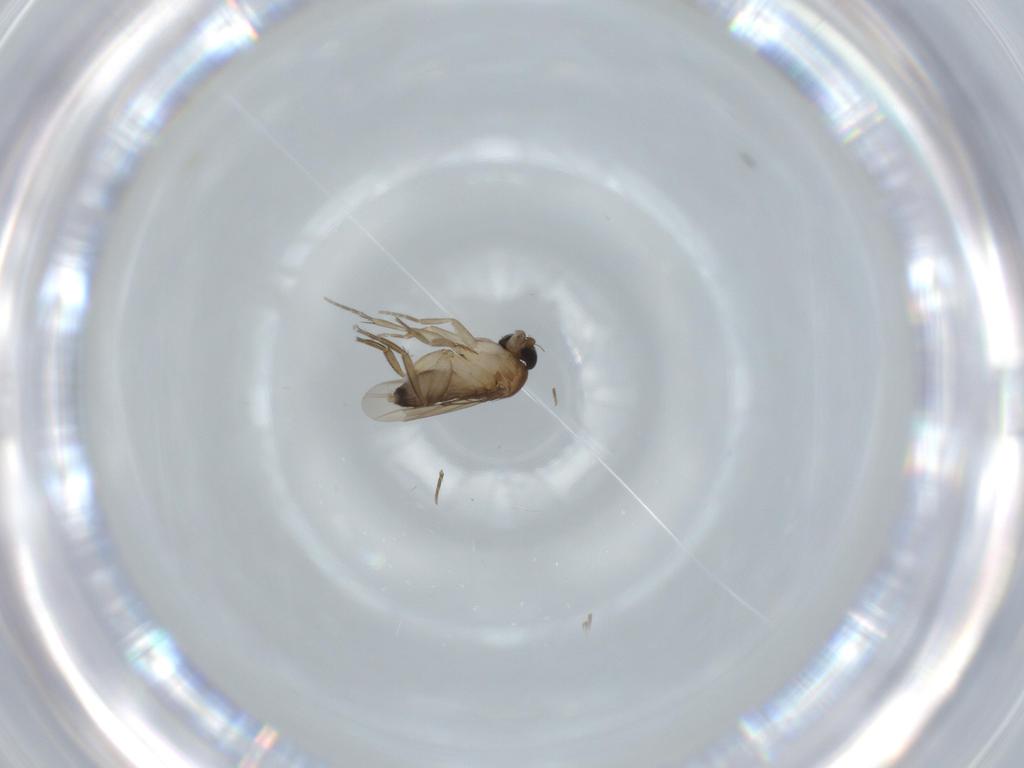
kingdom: Animalia
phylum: Arthropoda
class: Insecta
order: Diptera
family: Phoridae
